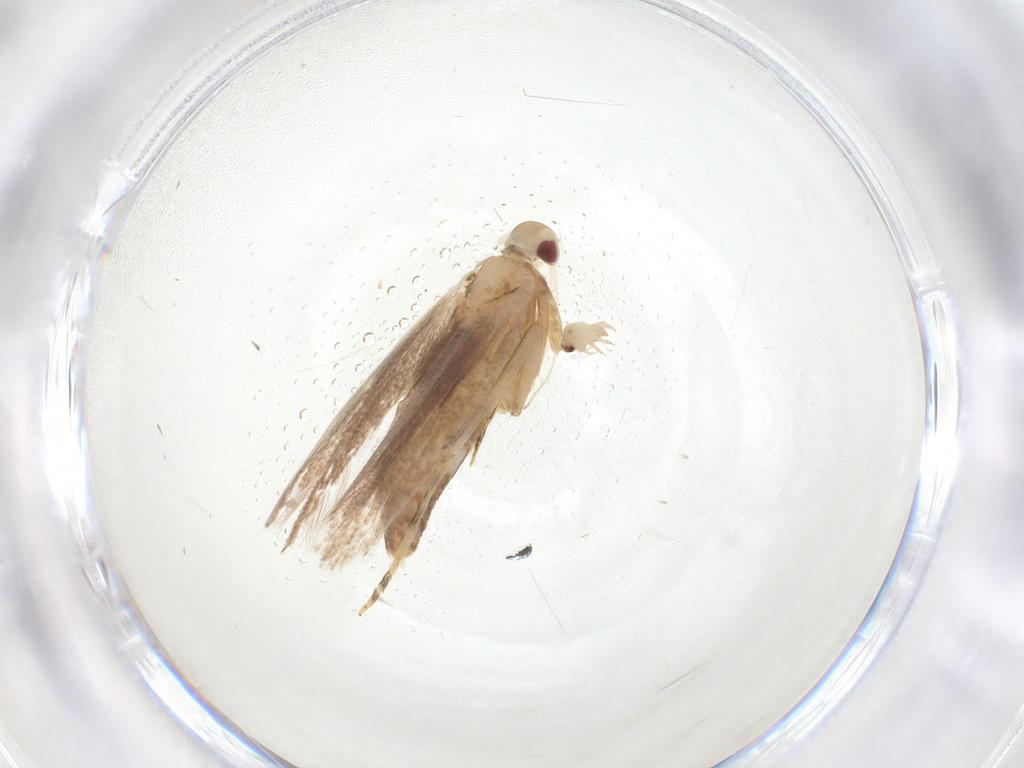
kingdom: Animalia
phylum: Arthropoda
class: Insecta
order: Lepidoptera
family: Cosmopterigidae
